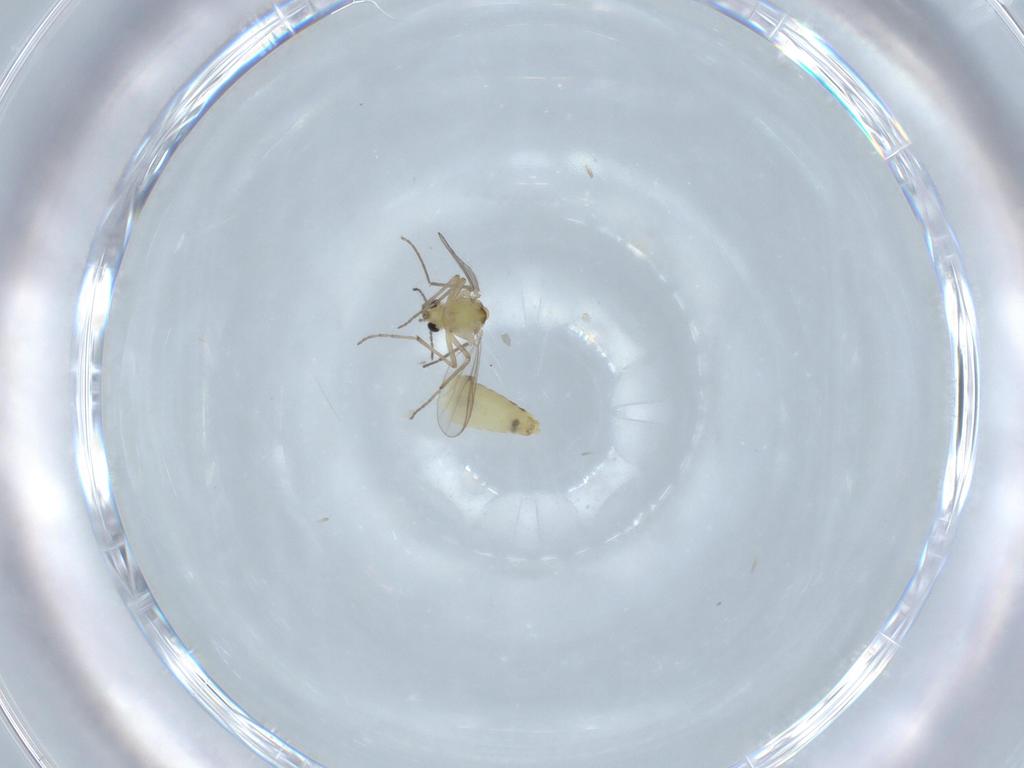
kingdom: Animalia
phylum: Arthropoda
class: Insecta
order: Diptera
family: Chironomidae
